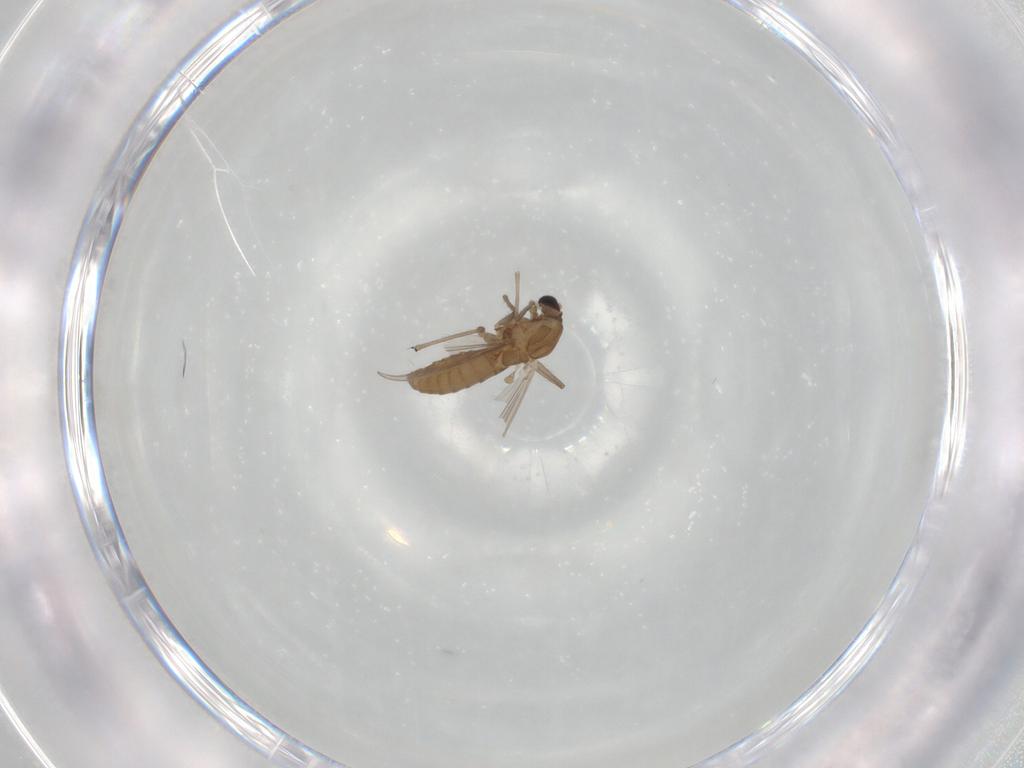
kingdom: Animalia
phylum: Arthropoda
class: Insecta
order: Diptera
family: Chironomidae
